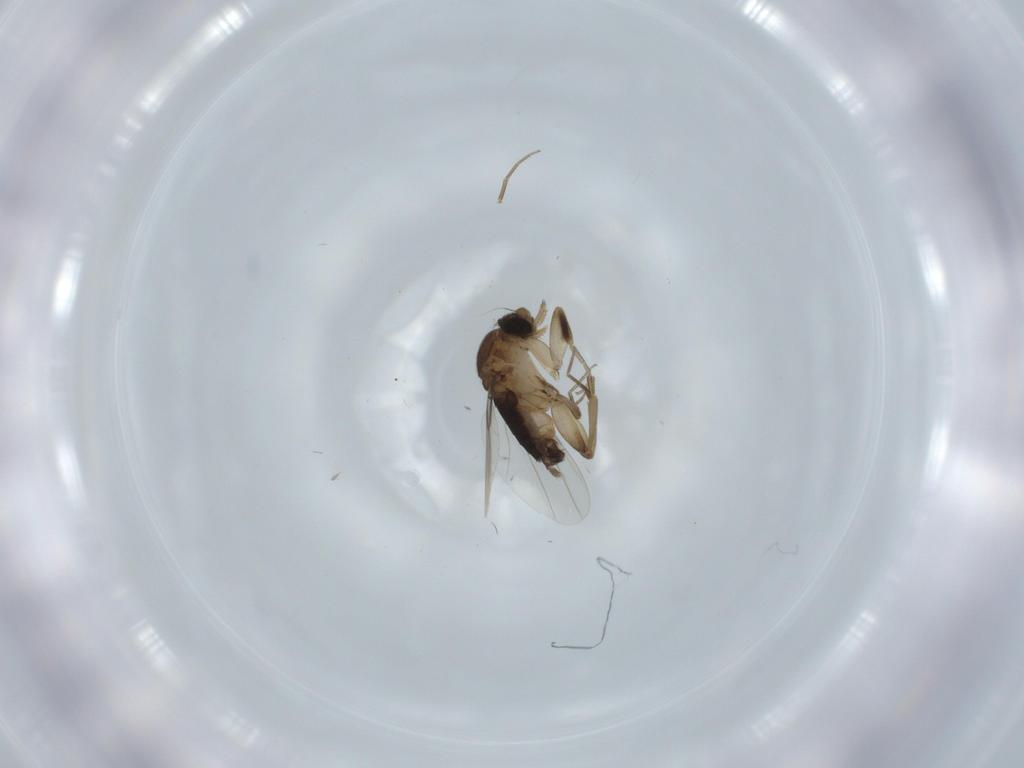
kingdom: Animalia
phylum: Arthropoda
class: Insecta
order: Diptera
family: Phoridae
